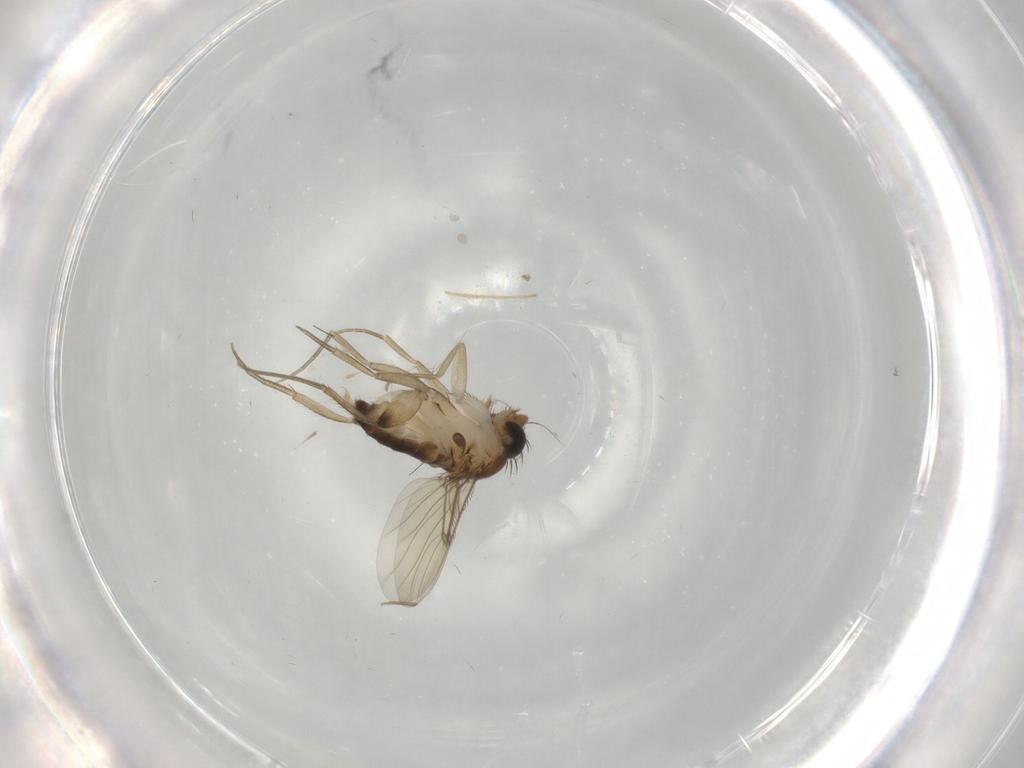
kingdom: Animalia
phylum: Arthropoda
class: Insecta
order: Diptera
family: Phoridae
